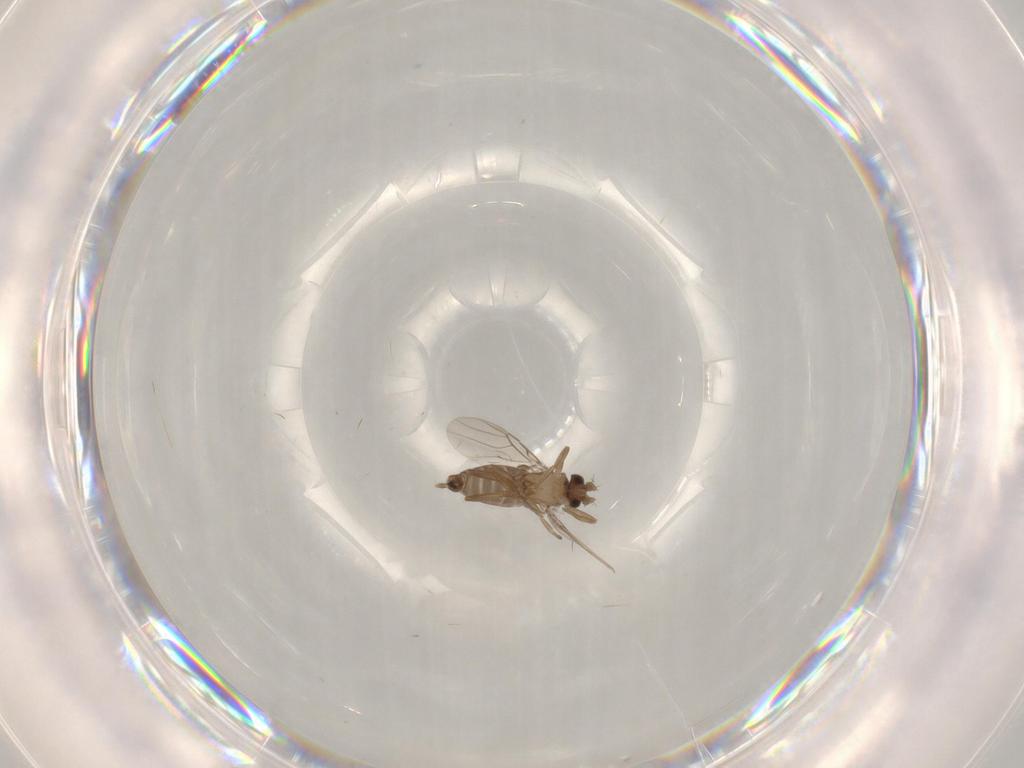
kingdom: Animalia
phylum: Arthropoda
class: Insecta
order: Diptera
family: Phoridae
